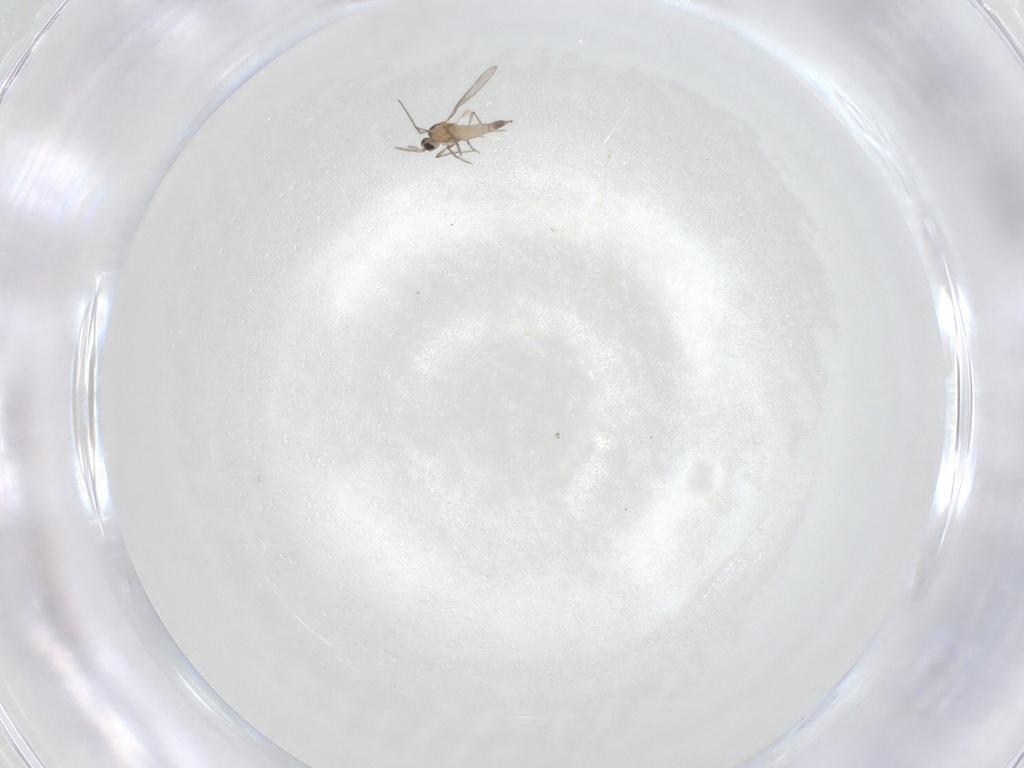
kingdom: Animalia
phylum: Arthropoda
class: Insecta
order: Diptera
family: Cecidomyiidae
